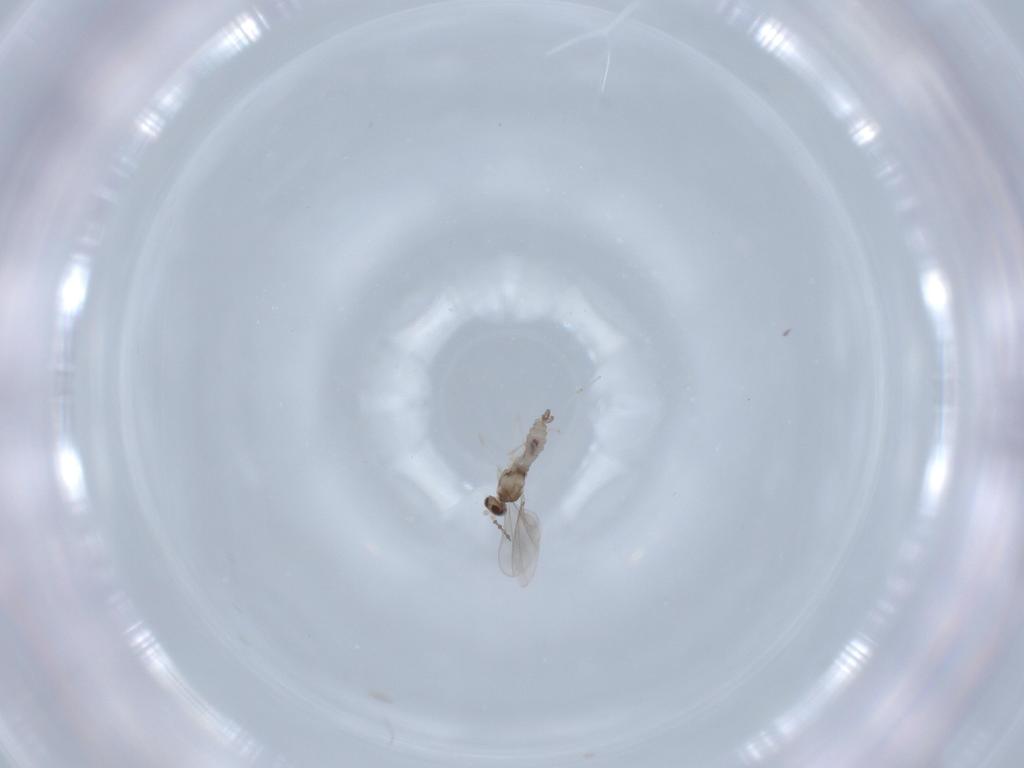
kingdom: Animalia
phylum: Arthropoda
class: Insecta
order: Diptera
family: Cecidomyiidae
